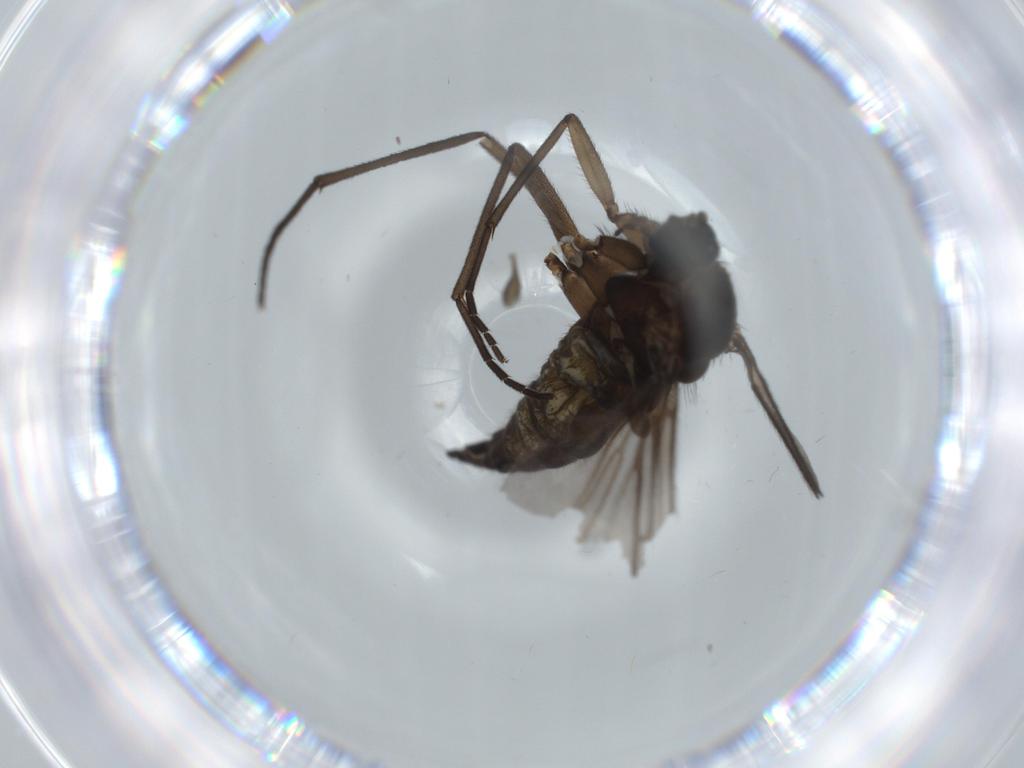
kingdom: Animalia
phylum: Arthropoda
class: Insecta
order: Diptera
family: Sciaridae
